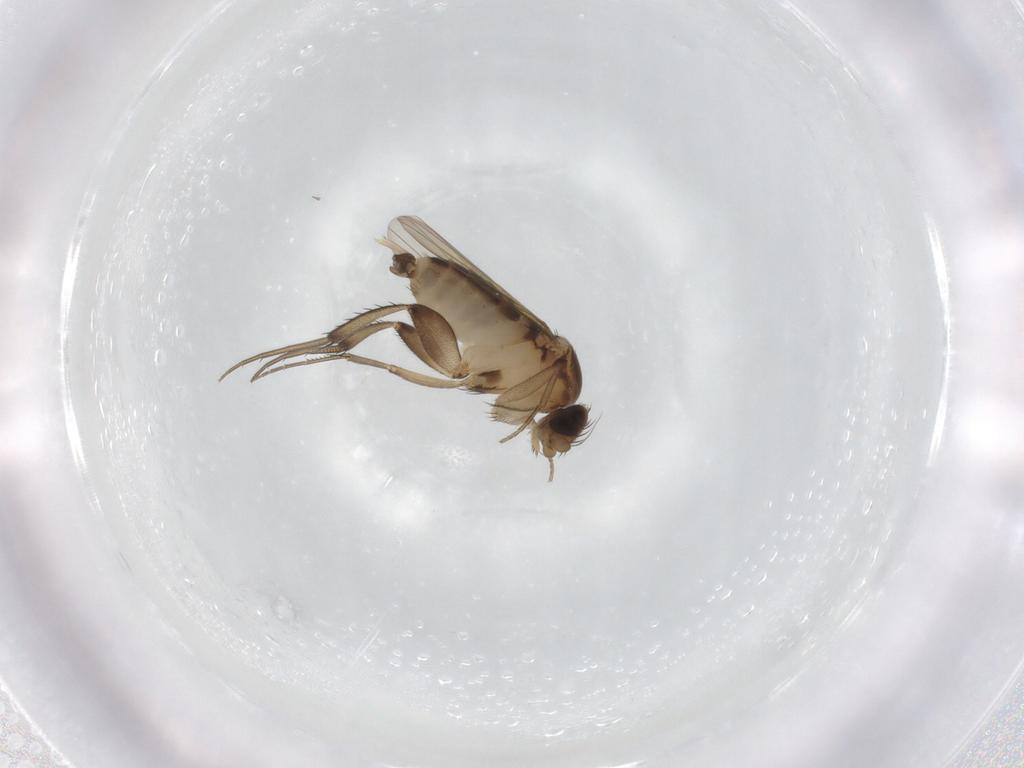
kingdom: Animalia
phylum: Arthropoda
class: Insecta
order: Diptera
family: Phoridae
